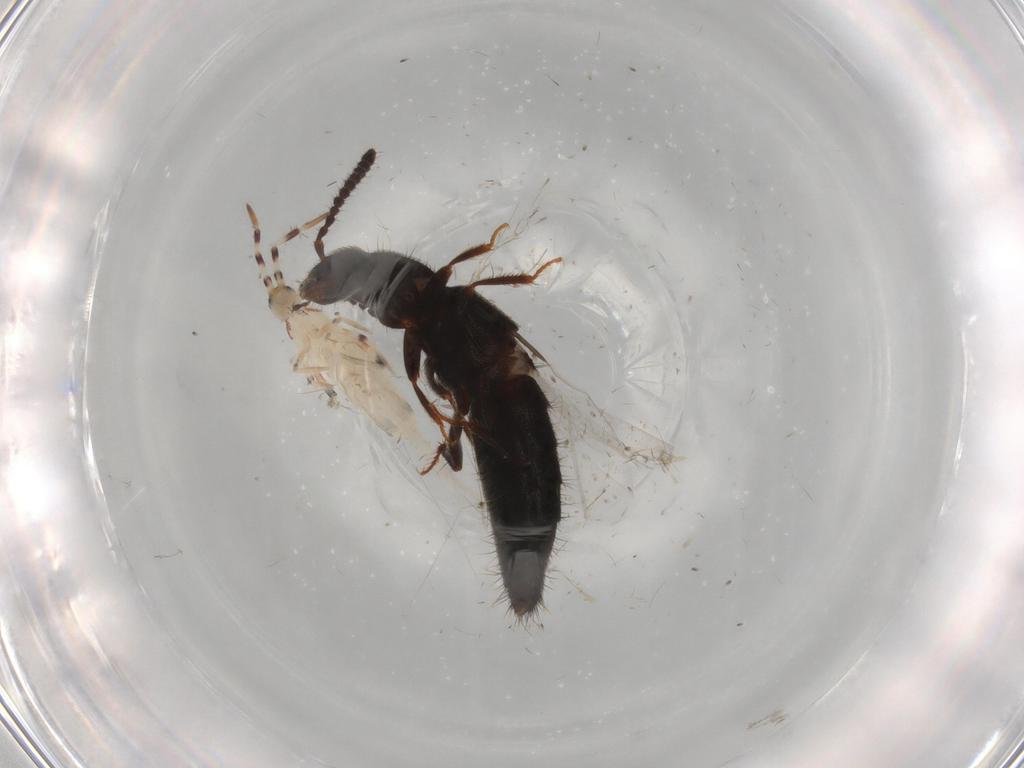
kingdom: Animalia
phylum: Arthropoda
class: Collembola
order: Entomobryomorpha
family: Entomobryidae
